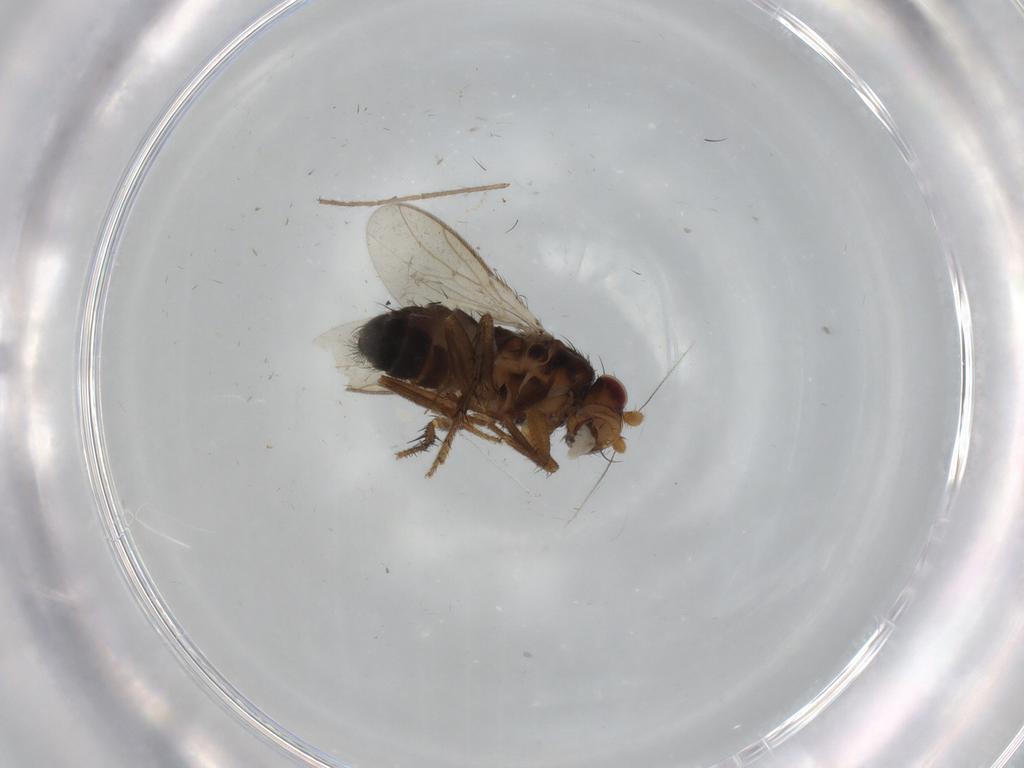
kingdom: Animalia
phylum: Arthropoda
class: Insecta
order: Diptera
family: Sphaeroceridae
